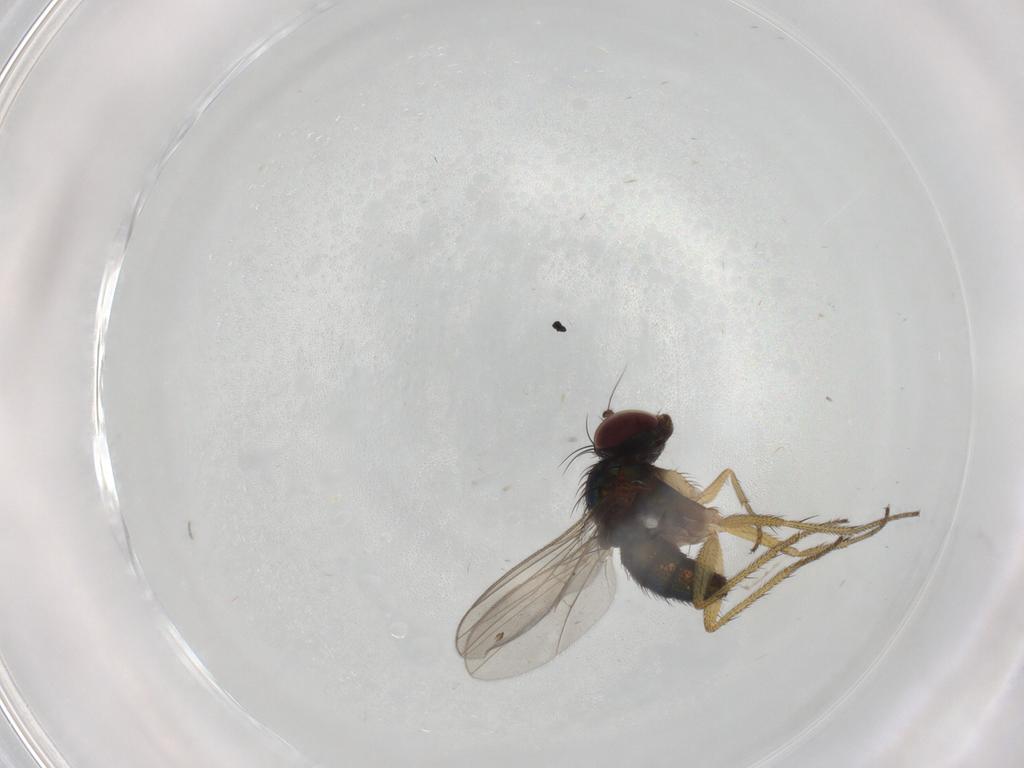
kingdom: Animalia
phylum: Arthropoda
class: Insecta
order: Diptera
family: Dolichopodidae
